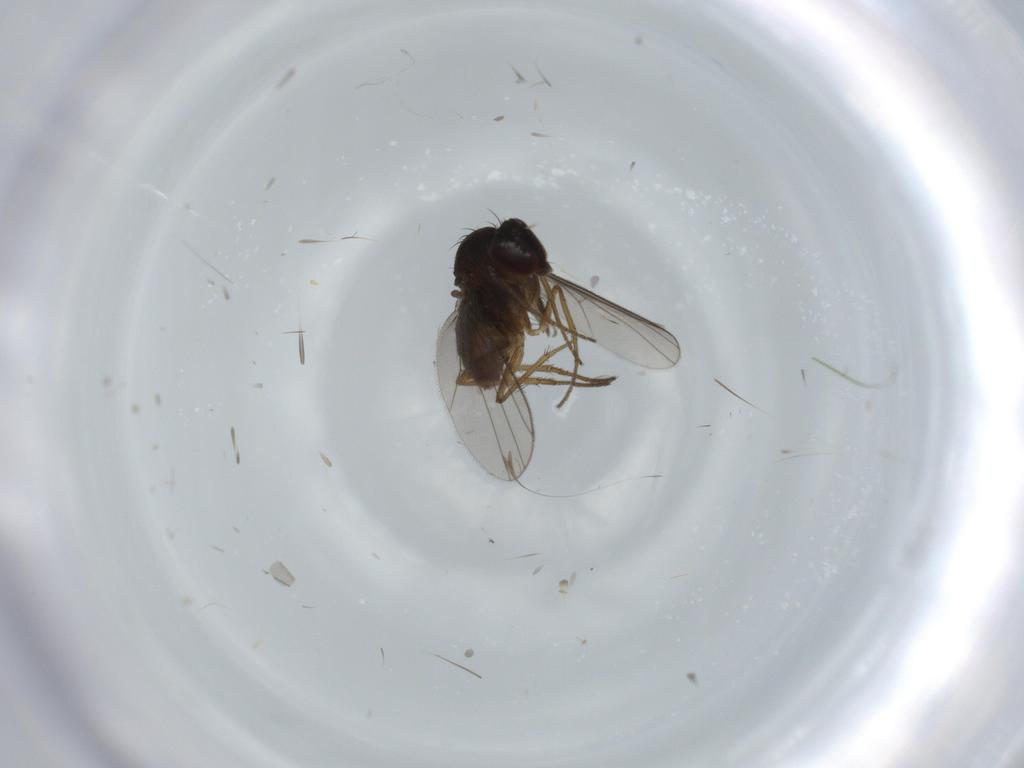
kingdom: Animalia
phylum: Arthropoda
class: Insecta
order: Diptera
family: Dolichopodidae
